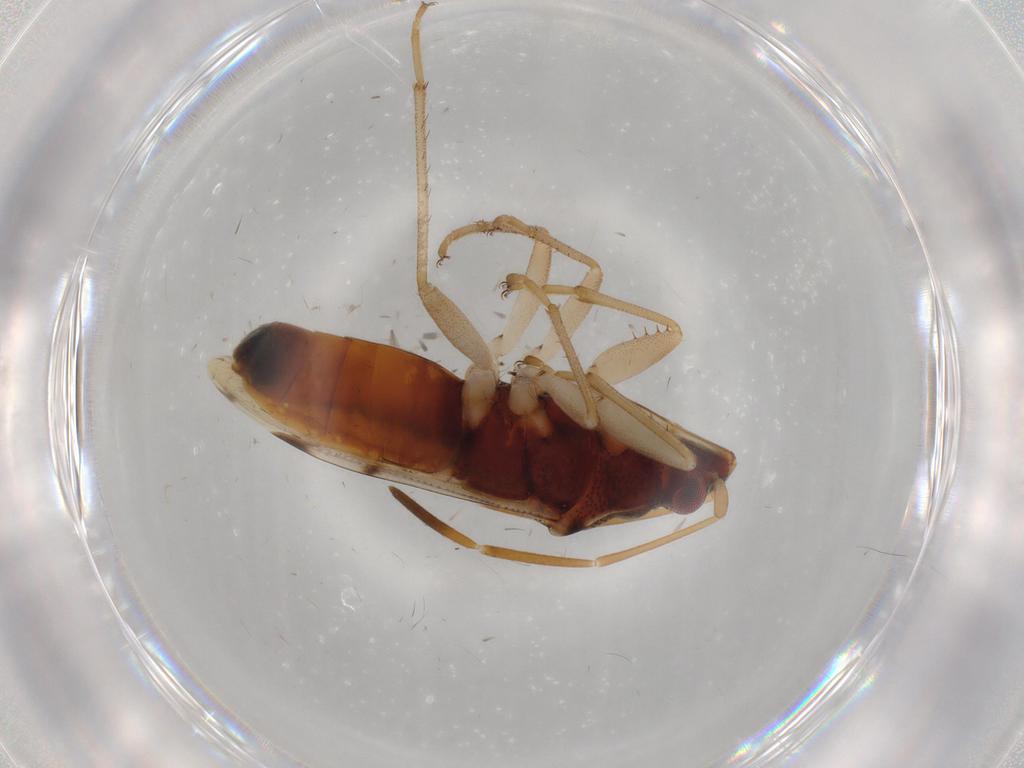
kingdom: Animalia
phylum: Arthropoda
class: Insecta
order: Hemiptera
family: Rhyparochromidae
